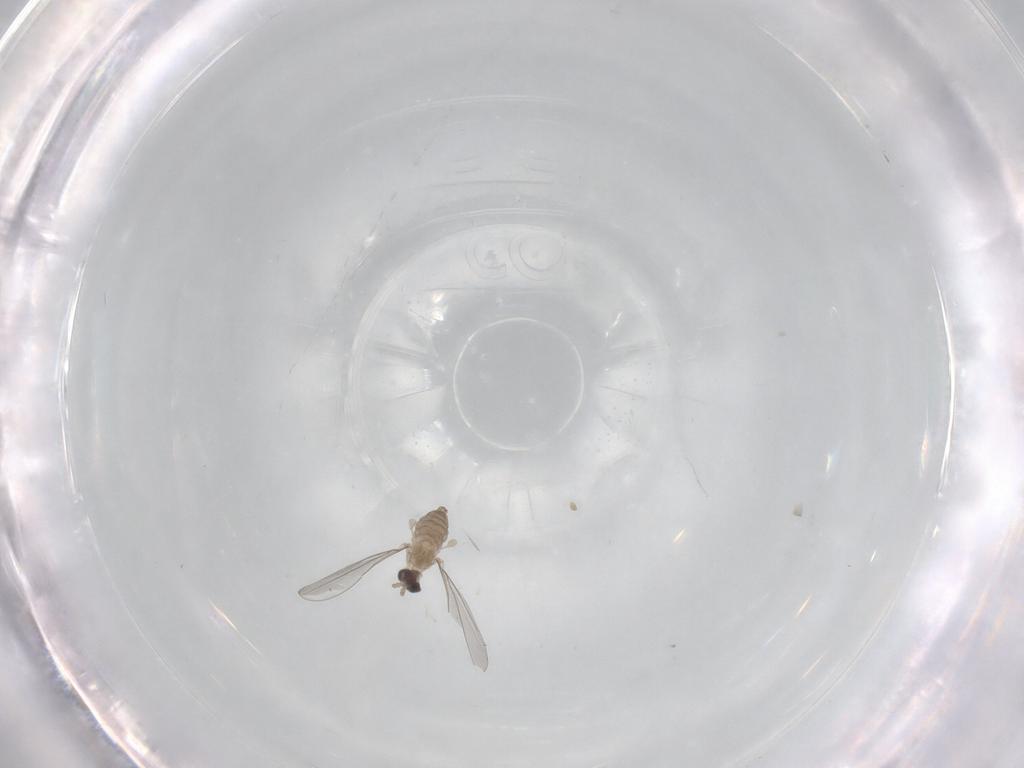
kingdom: Animalia
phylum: Arthropoda
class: Insecta
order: Diptera
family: Cecidomyiidae
